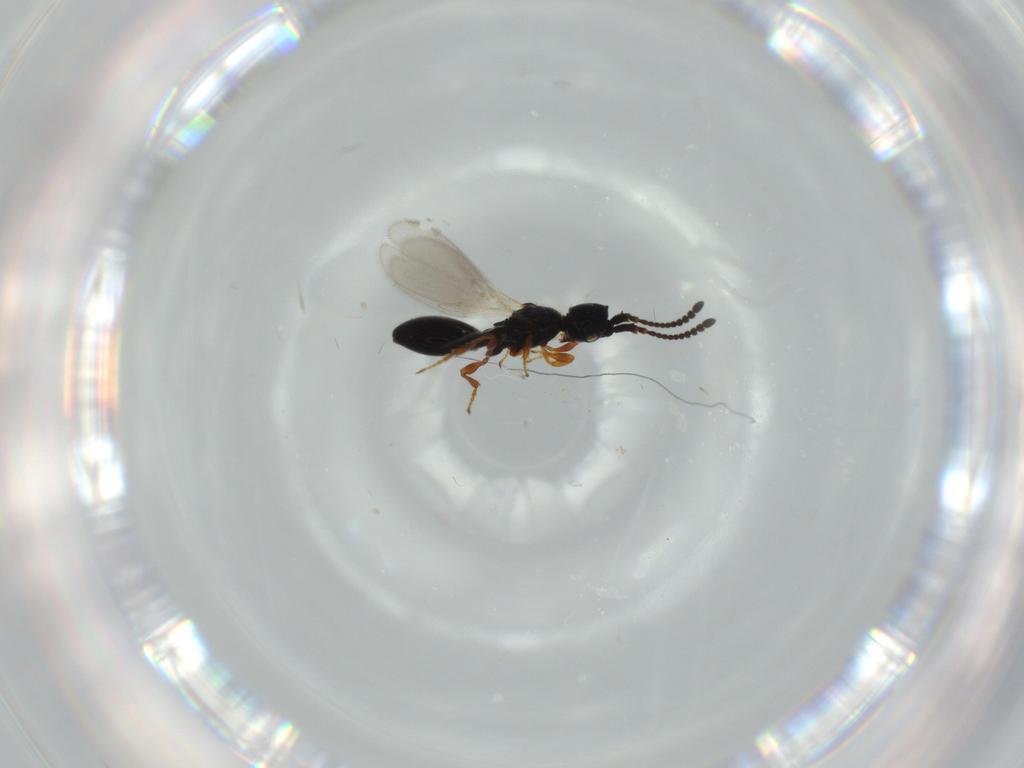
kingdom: Animalia
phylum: Arthropoda
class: Insecta
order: Hymenoptera
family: Diapriidae
